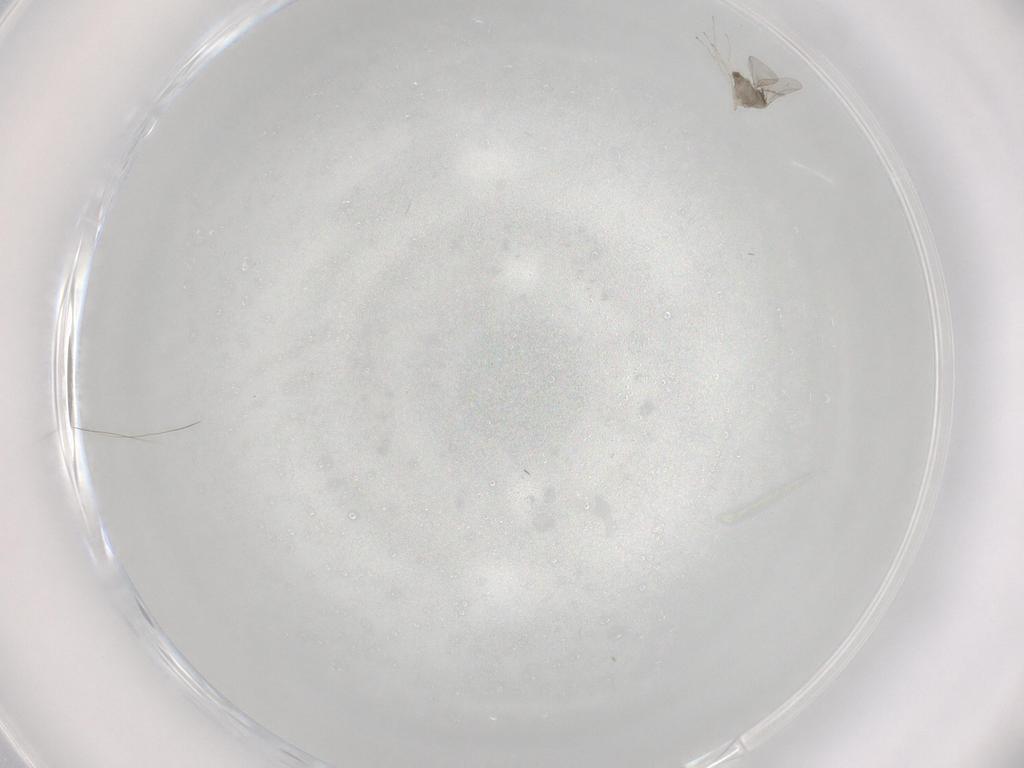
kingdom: Animalia
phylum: Arthropoda
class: Insecta
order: Diptera
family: Cecidomyiidae
